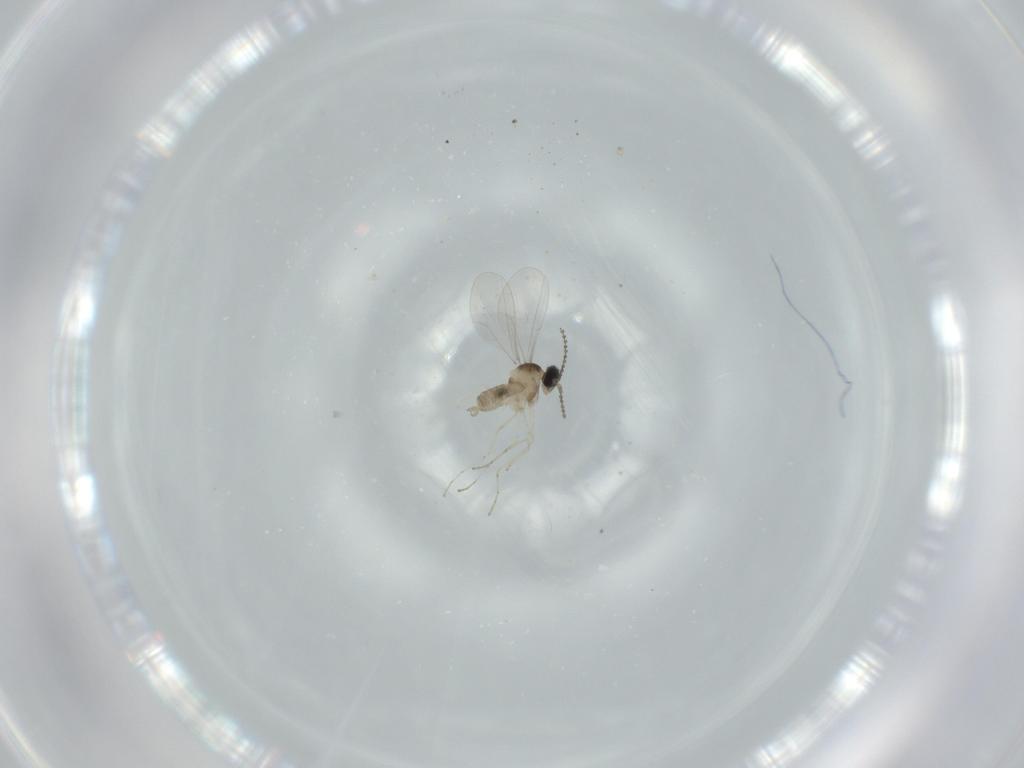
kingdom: Animalia
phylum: Arthropoda
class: Insecta
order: Diptera
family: Cecidomyiidae
